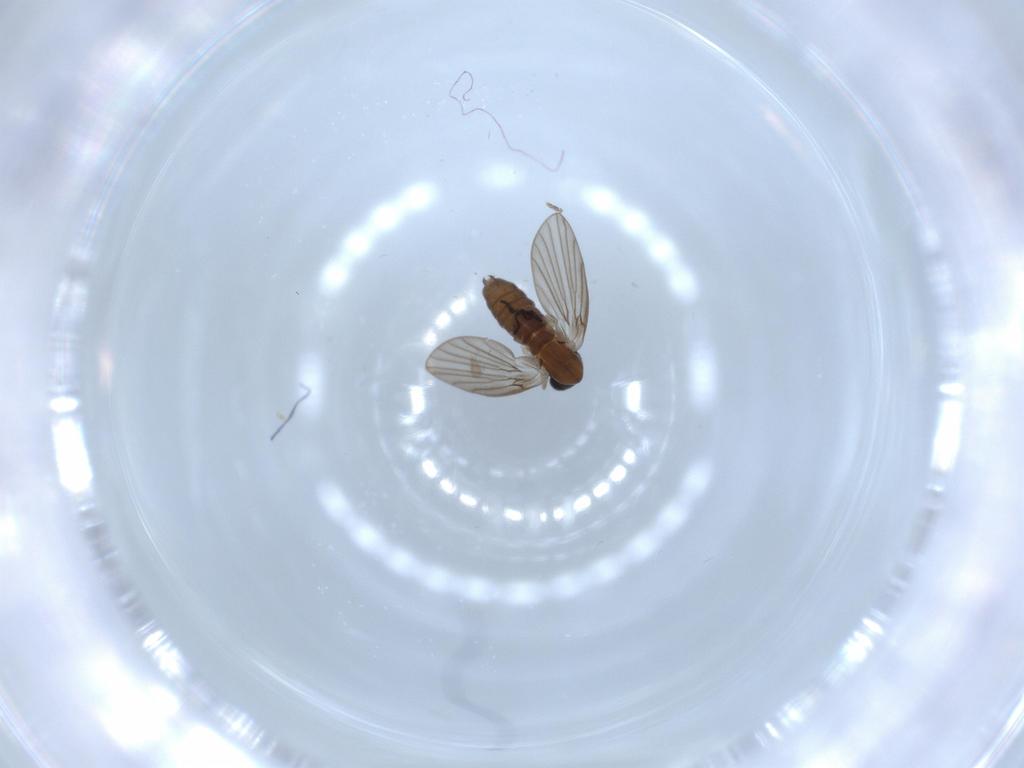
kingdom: Animalia
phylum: Arthropoda
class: Insecta
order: Diptera
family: Psychodidae
